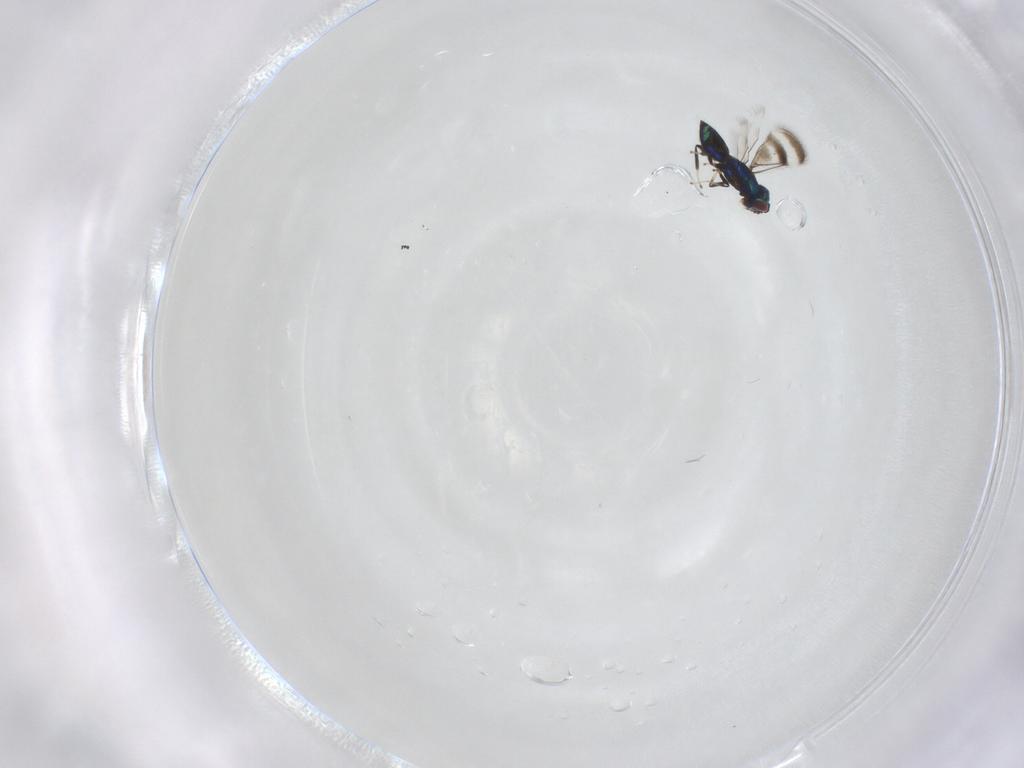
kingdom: Animalia
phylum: Arthropoda
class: Insecta
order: Hymenoptera
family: Eulophidae
